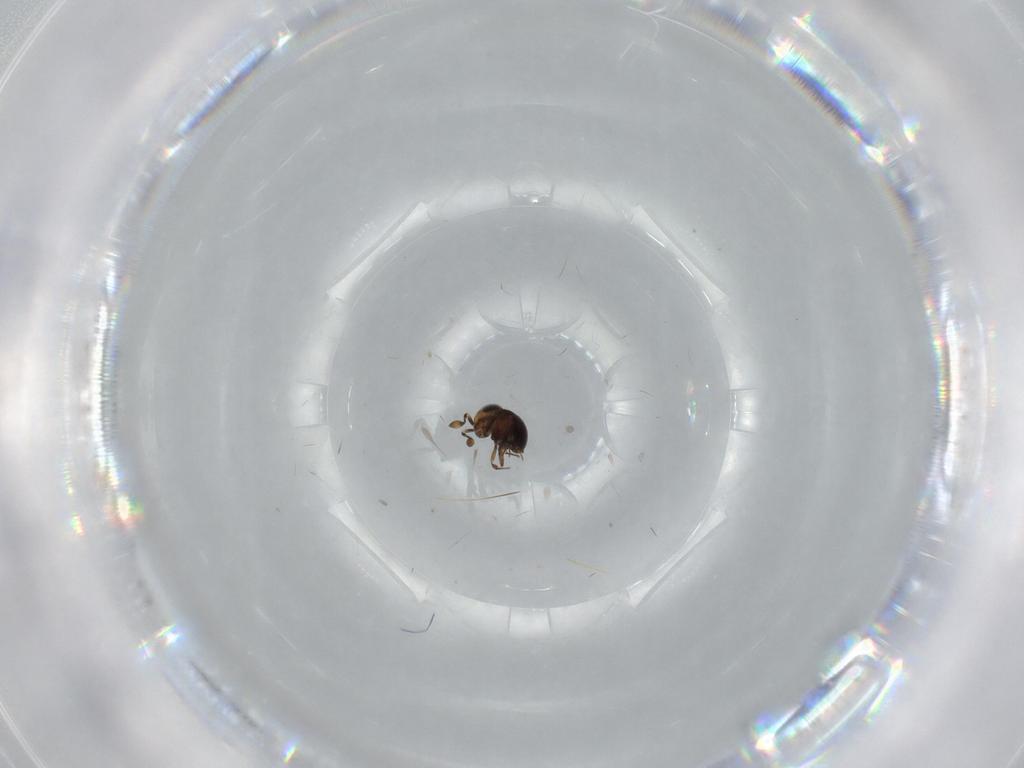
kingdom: Animalia
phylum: Arthropoda
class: Insecta
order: Hymenoptera
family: Scelionidae
